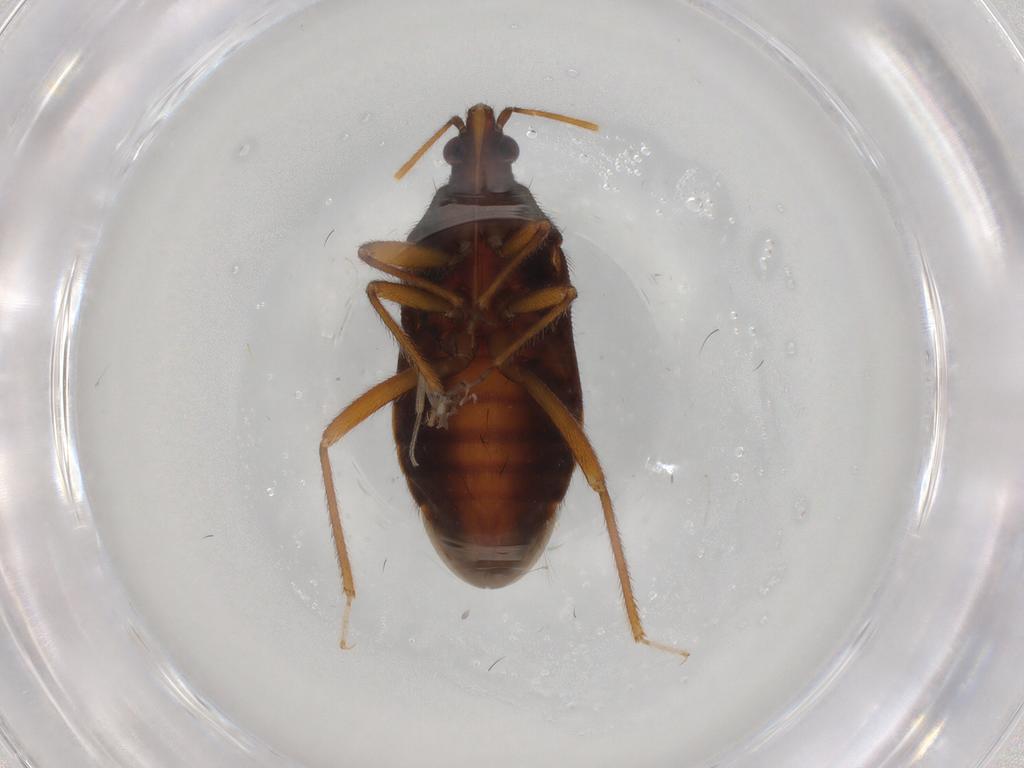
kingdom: Animalia
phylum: Arthropoda
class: Insecta
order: Hemiptera
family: Anthocoridae
